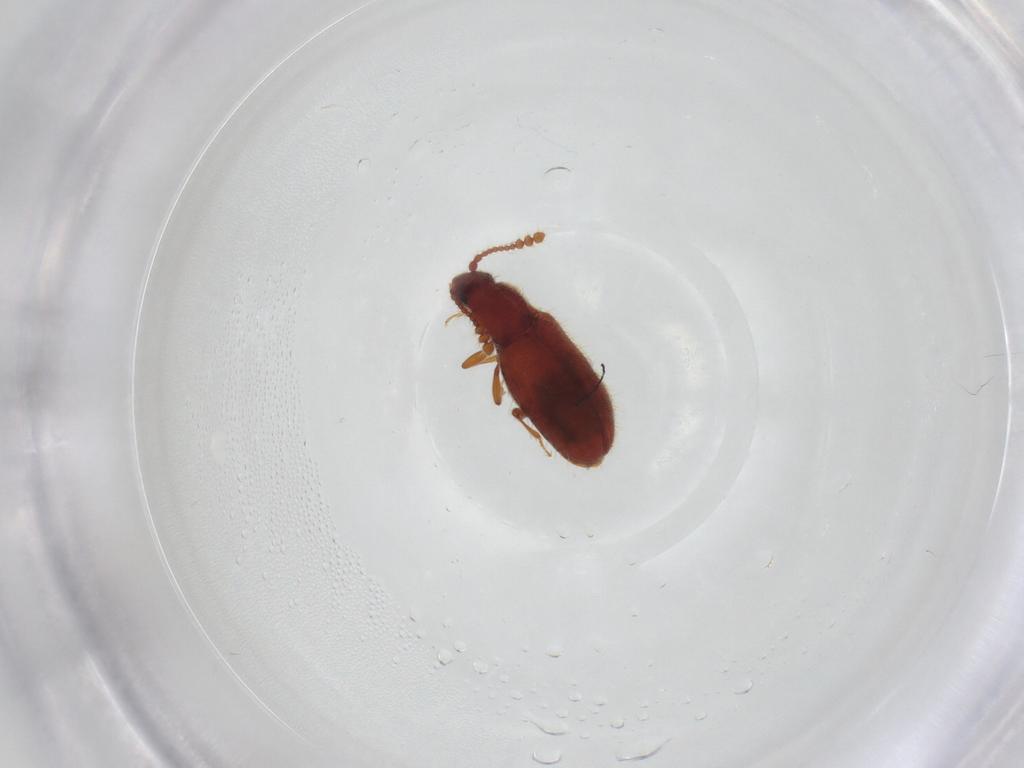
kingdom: Animalia
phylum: Arthropoda
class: Insecta
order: Coleoptera
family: Cryptophagidae
